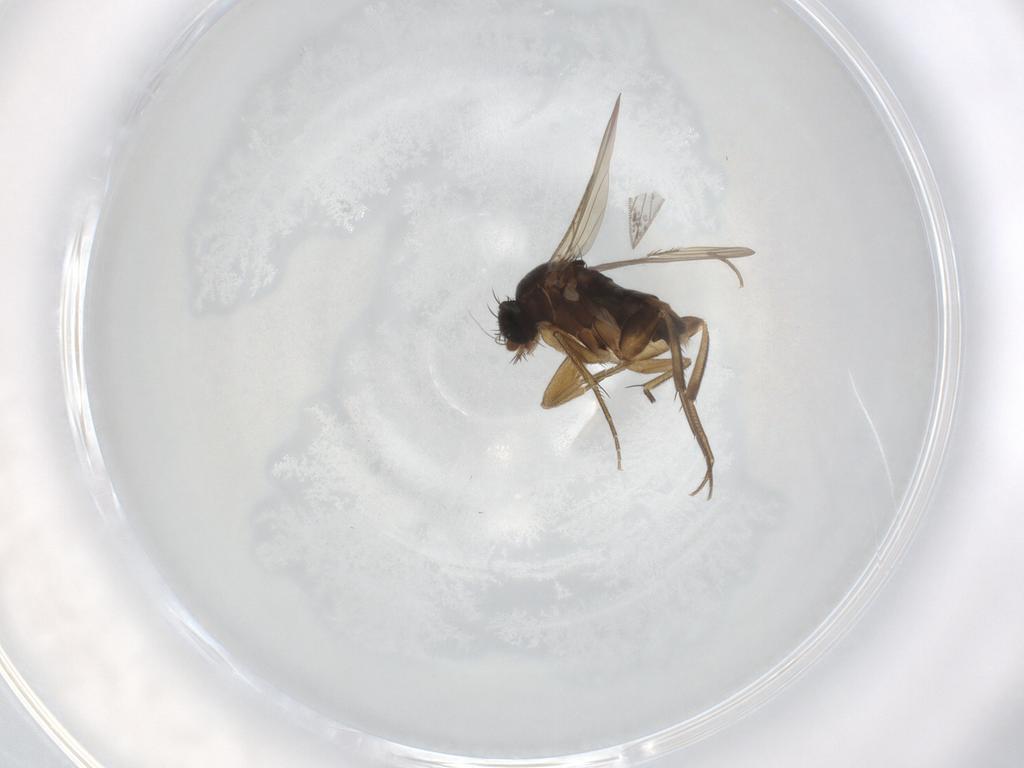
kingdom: Animalia
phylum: Arthropoda
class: Insecta
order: Diptera
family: Phoridae
